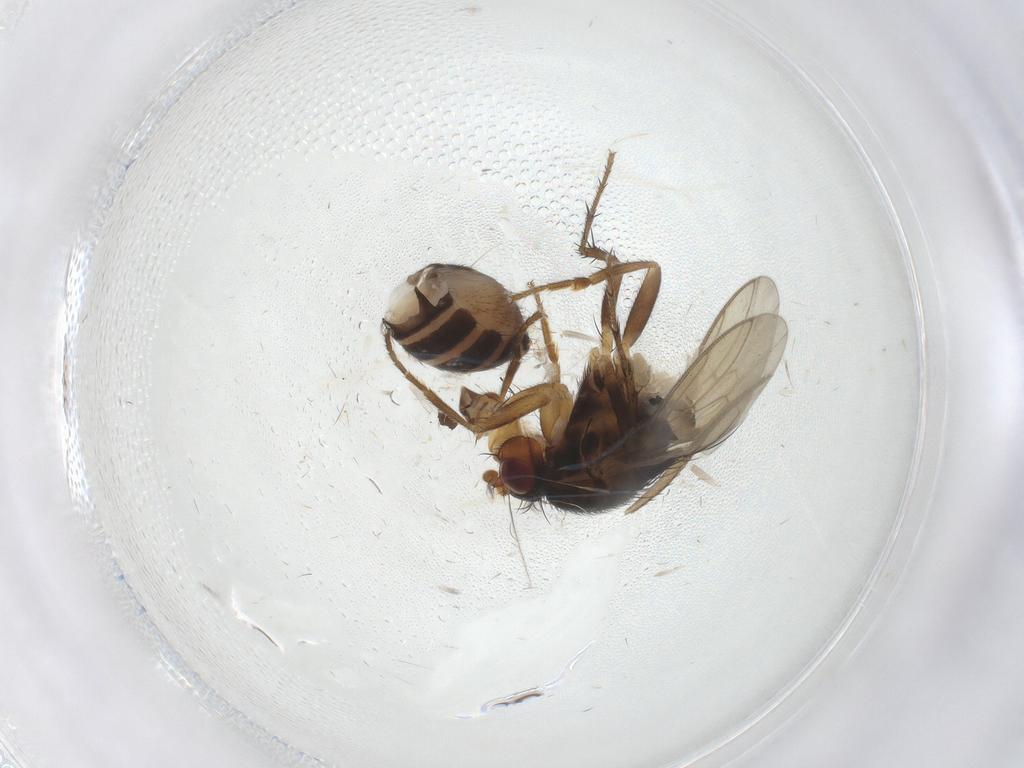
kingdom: Animalia
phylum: Arthropoda
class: Insecta
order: Diptera
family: Sphaeroceridae
